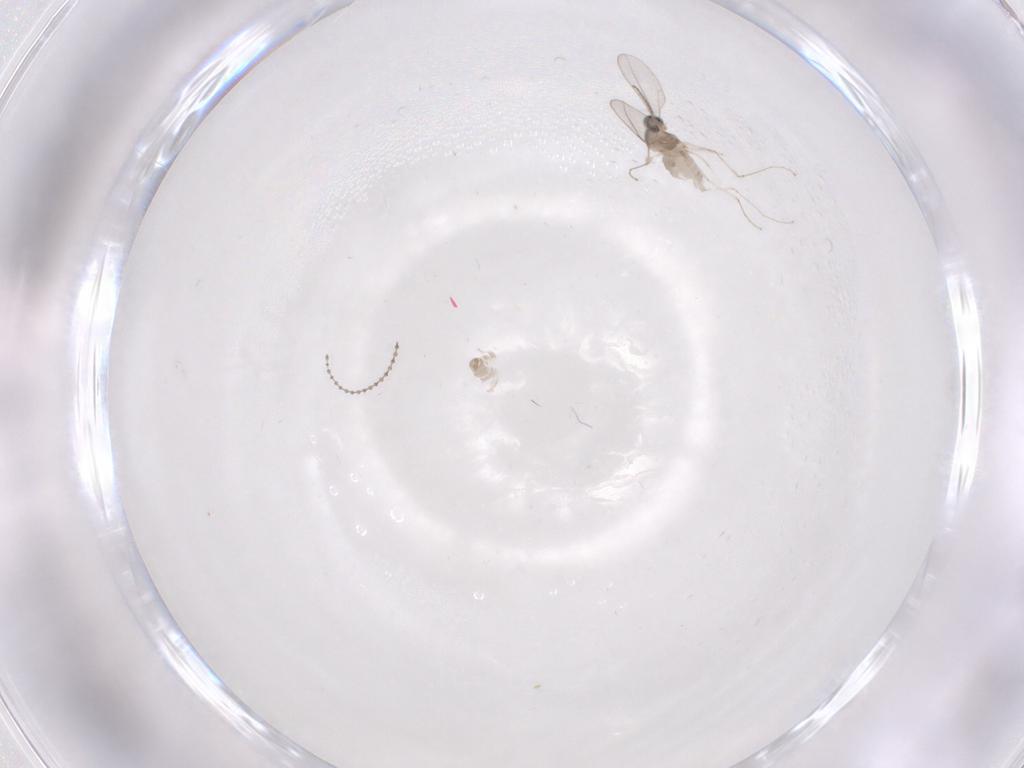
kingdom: Animalia
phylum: Arthropoda
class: Insecta
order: Diptera
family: Cecidomyiidae
